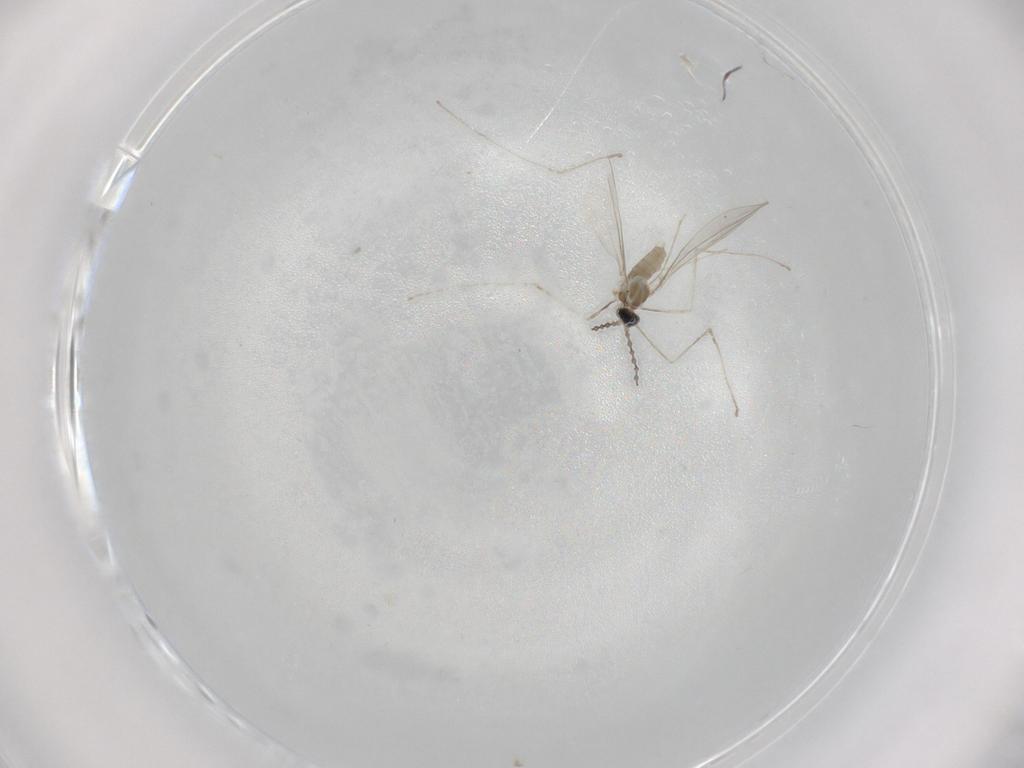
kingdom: Animalia
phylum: Arthropoda
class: Insecta
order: Diptera
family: Cecidomyiidae
